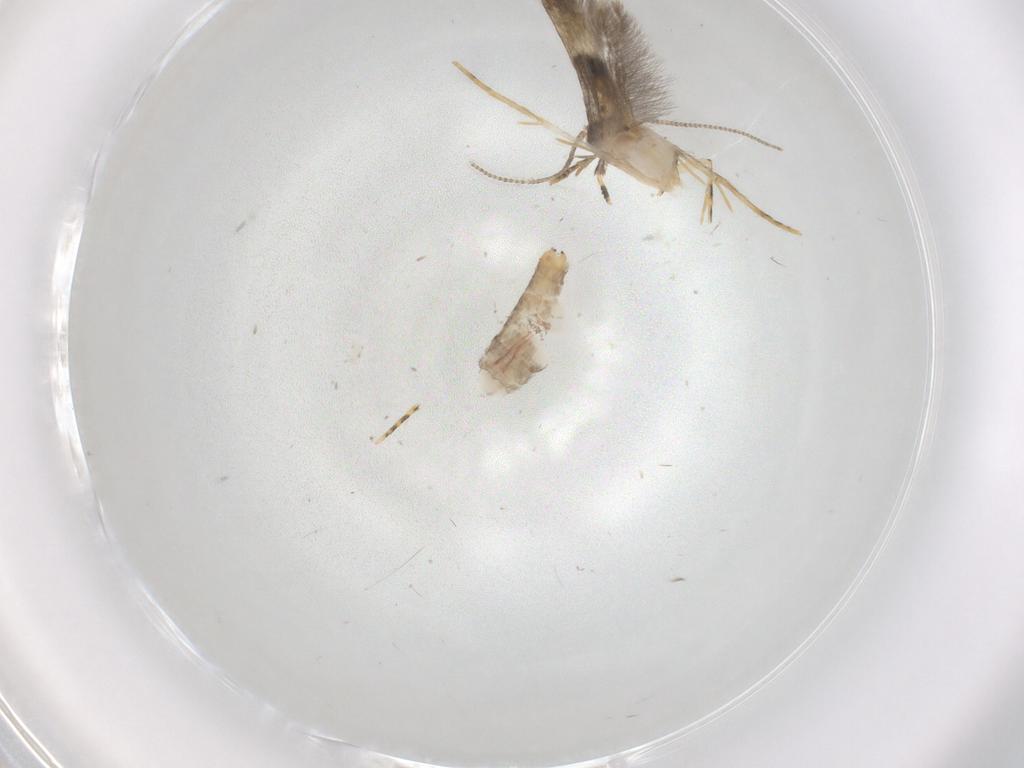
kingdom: Animalia
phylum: Arthropoda
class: Insecta
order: Lepidoptera
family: Tineidae
